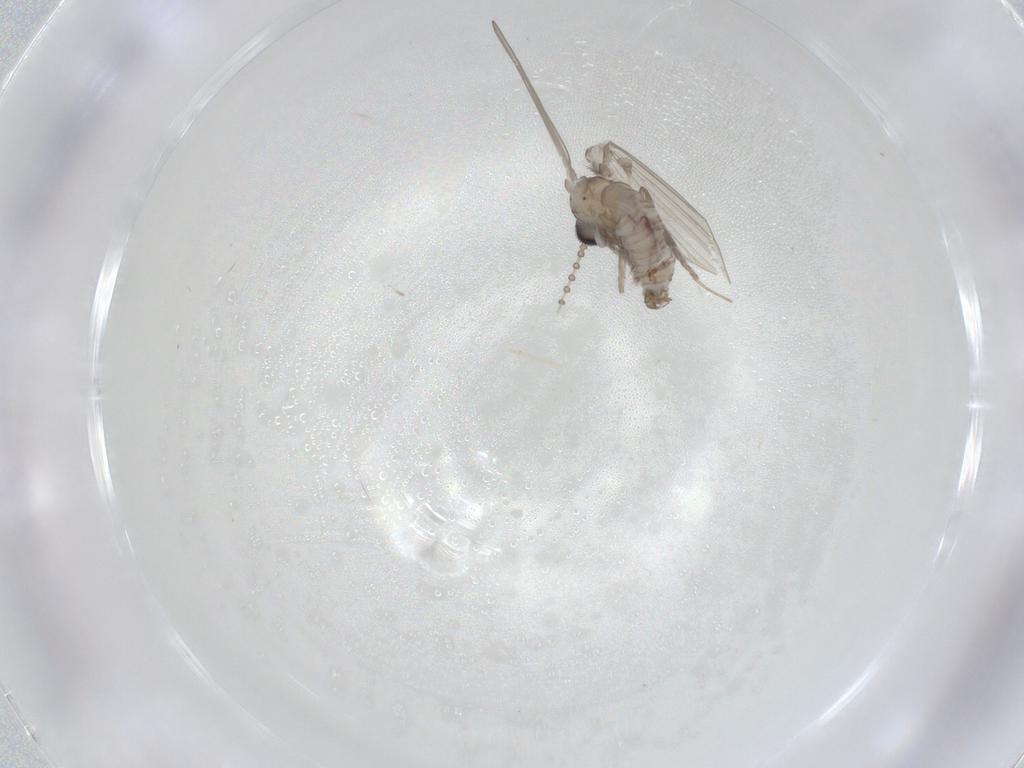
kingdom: Animalia
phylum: Arthropoda
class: Insecta
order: Diptera
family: Psychodidae
